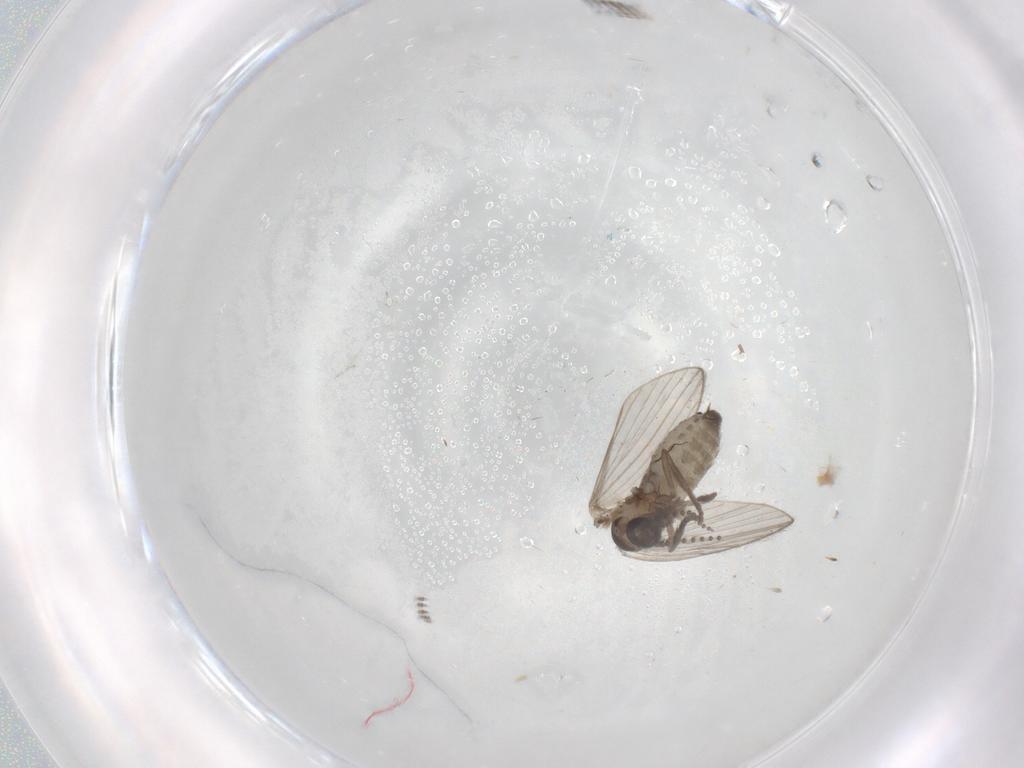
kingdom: Animalia
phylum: Arthropoda
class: Insecta
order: Diptera
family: Psychodidae
